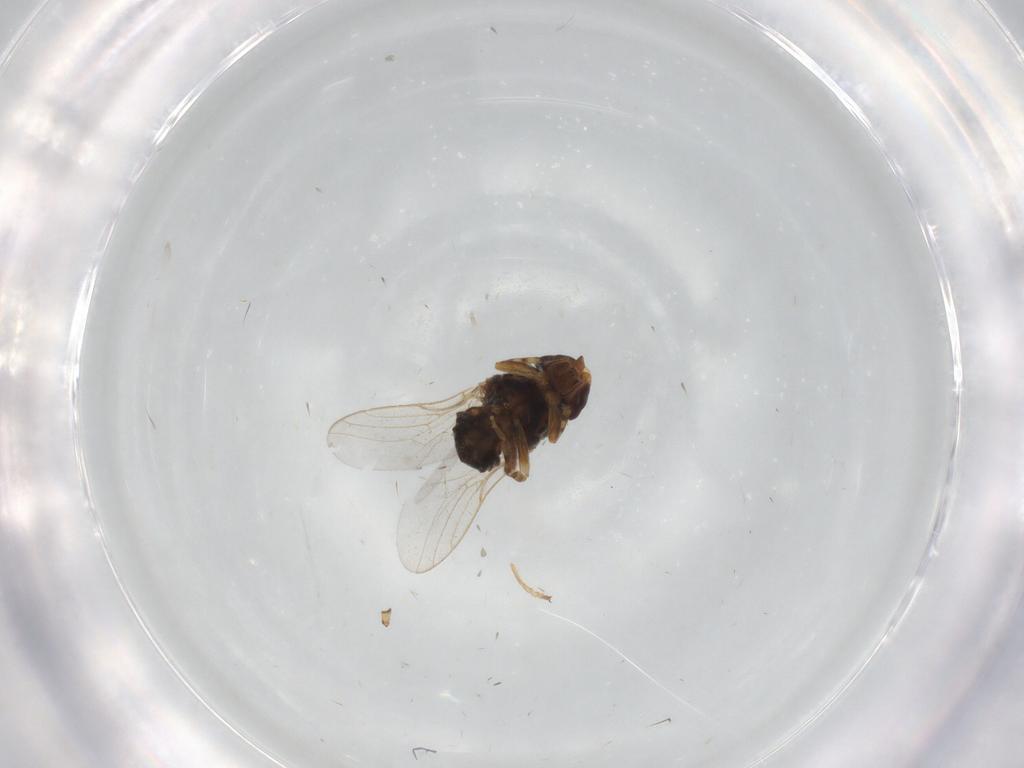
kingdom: Animalia
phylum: Arthropoda
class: Insecta
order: Diptera
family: Chloropidae
